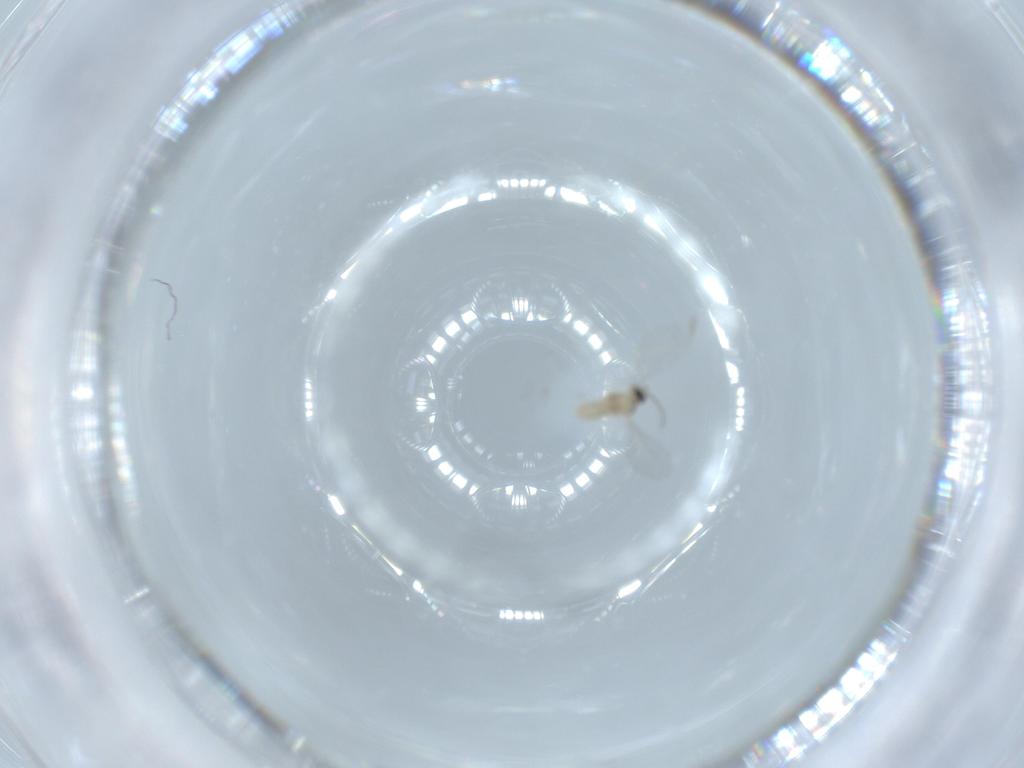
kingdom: Animalia
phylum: Arthropoda
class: Insecta
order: Diptera
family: Cecidomyiidae
